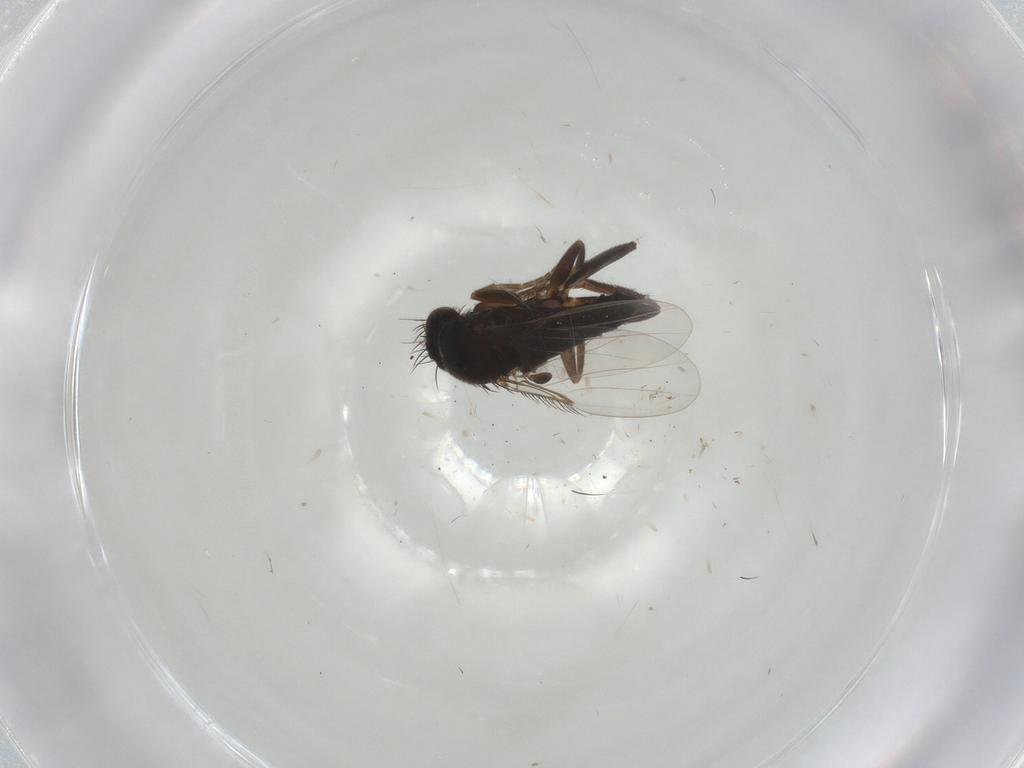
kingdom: Animalia
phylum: Arthropoda
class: Insecta
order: Diptera
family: Phoridae
